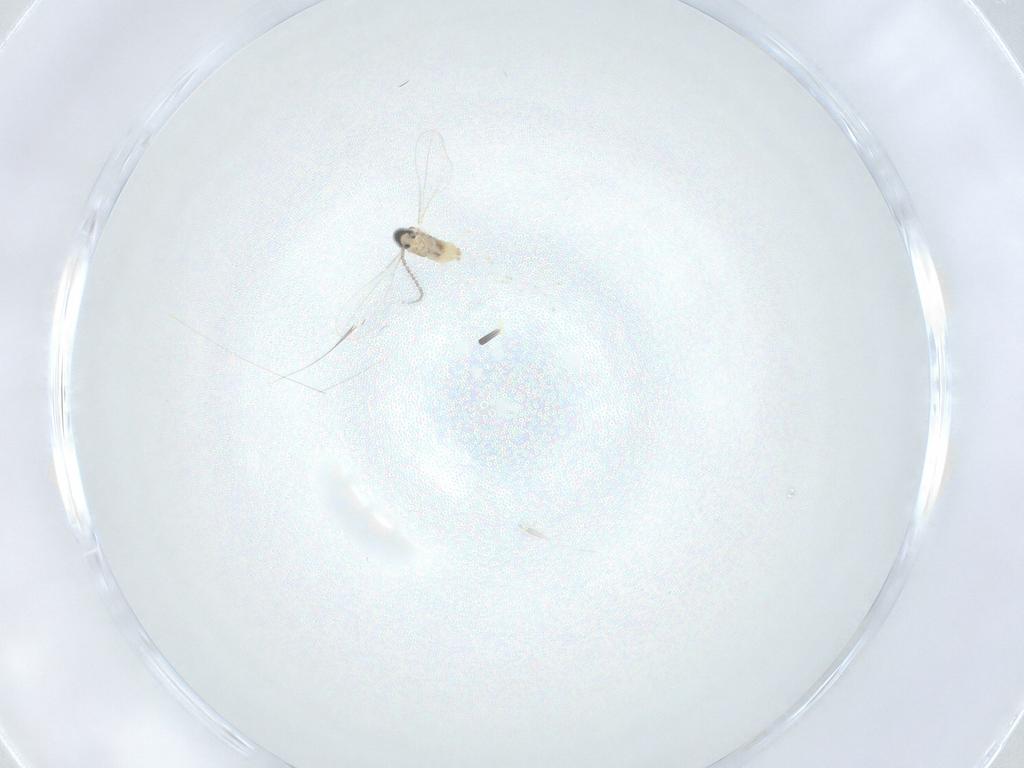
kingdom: Animalia
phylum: Arthropoda
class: Insecta
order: Diptera
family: Cecidomyiidae
